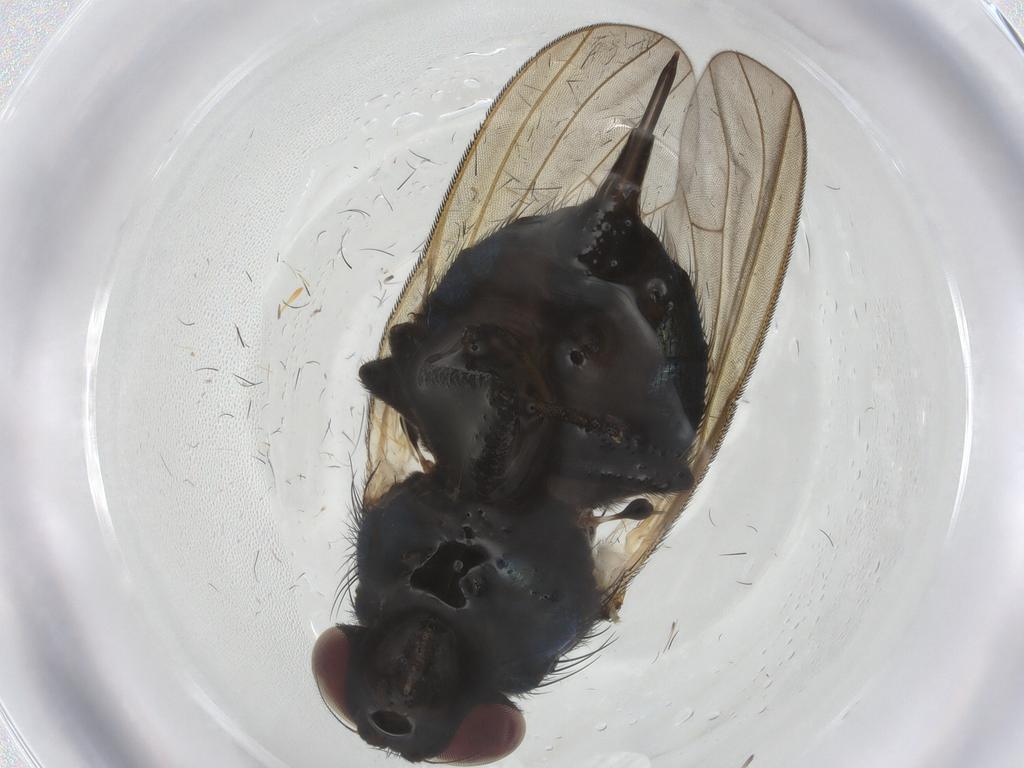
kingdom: Animalia
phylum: Arthropoda
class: Insecta
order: Diptera
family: Lonchaeidae
